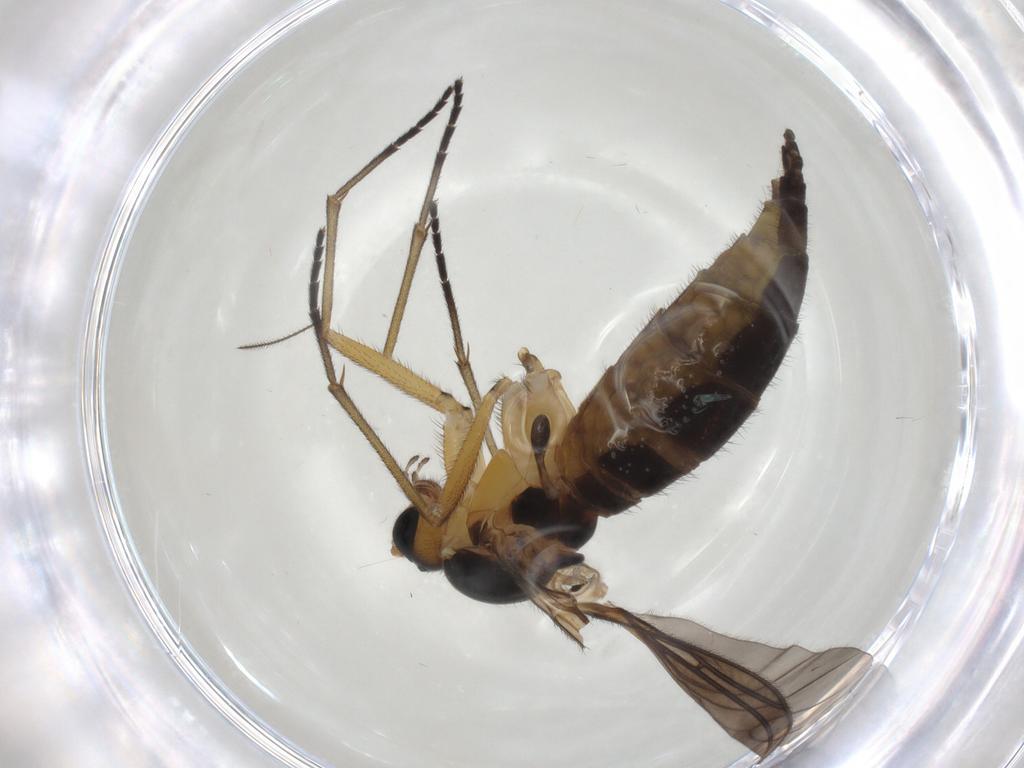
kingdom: Animalia
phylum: Arthropoda
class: Insecta
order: Diptera
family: Sciaridae
